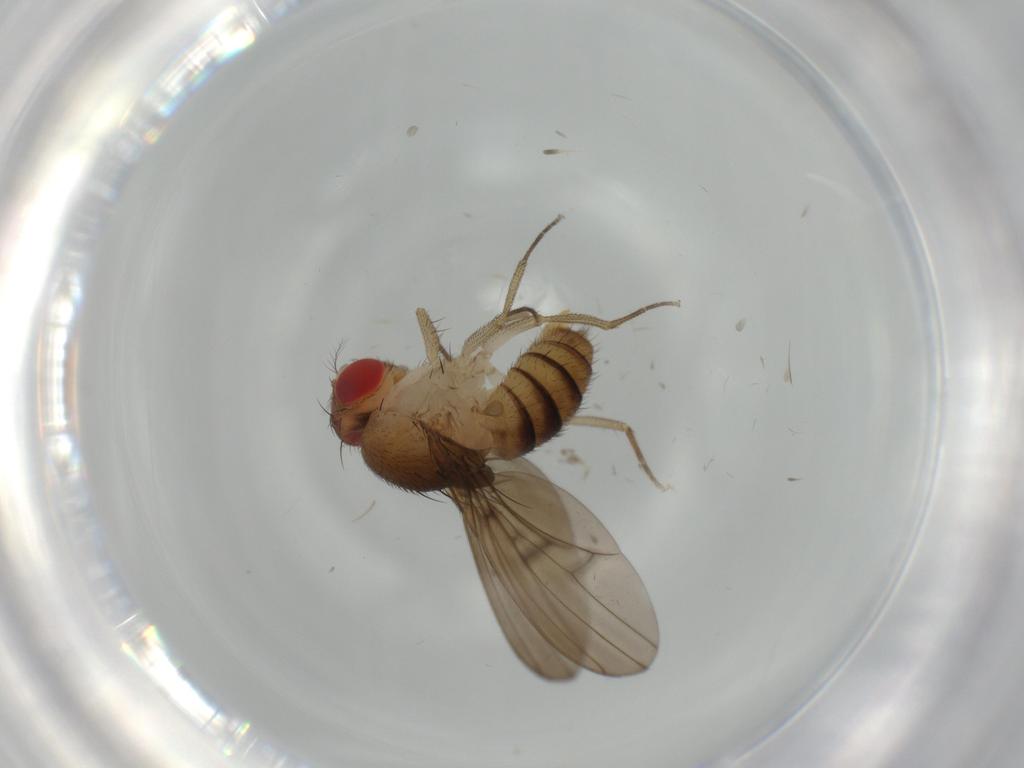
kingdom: Animalia
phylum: Arthropoda
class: Insecta
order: Diptera
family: Drosophilidae
